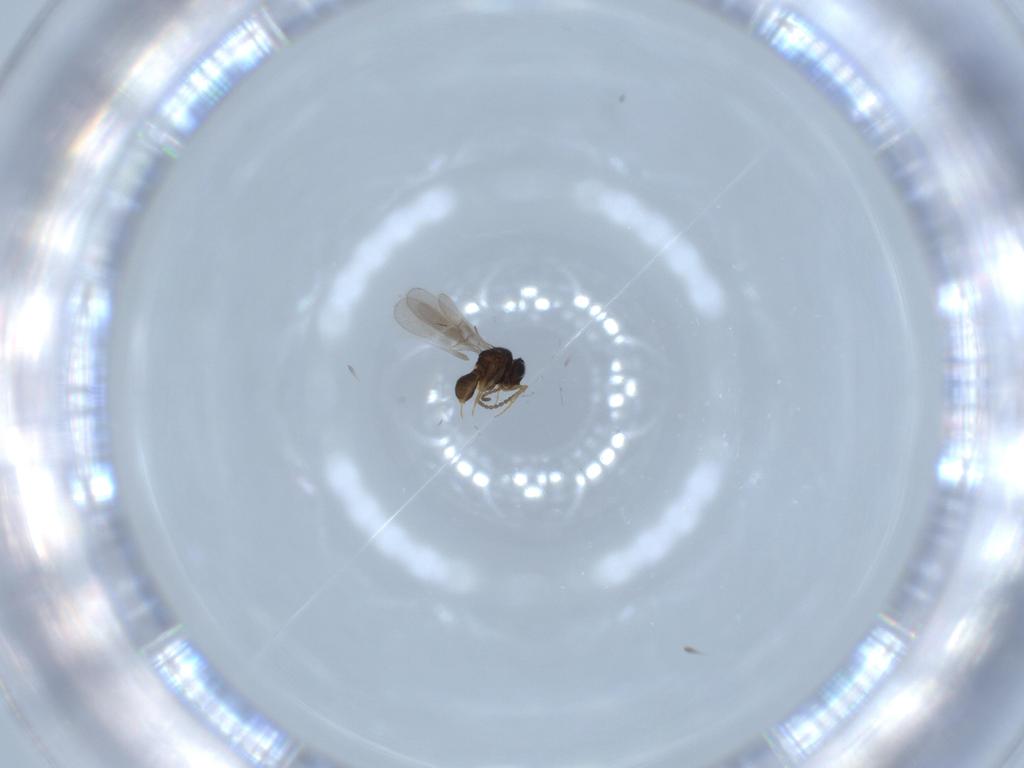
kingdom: Animalia
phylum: Arthropoda
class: Insecta
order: Hymenoptera
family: Scelionidae
